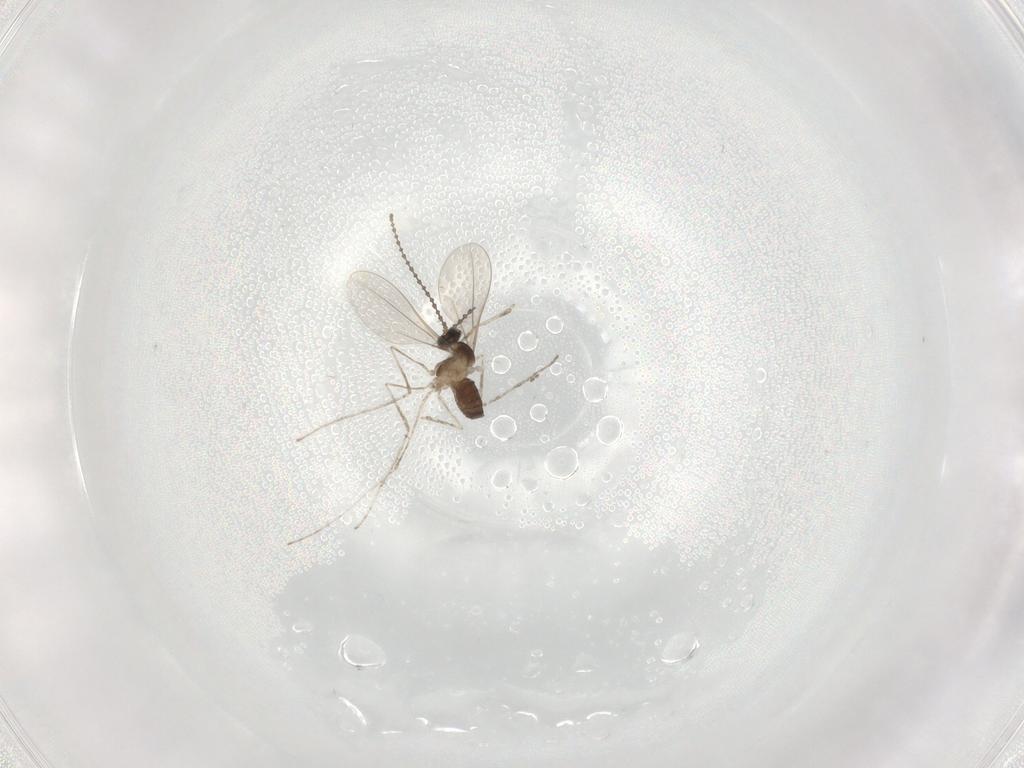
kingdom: Animalia
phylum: Arthropoda
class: Insecta
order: Diptera
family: Cecidomyiidae
